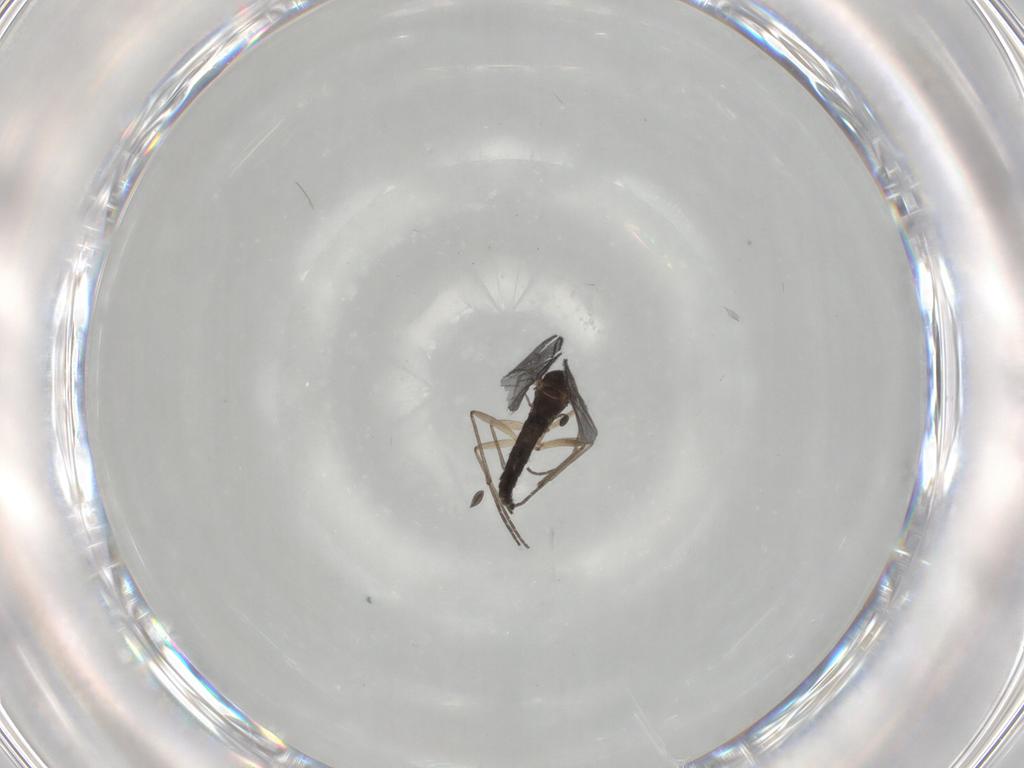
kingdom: Animalia
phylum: Arthropoda
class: Insecta
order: Diptera
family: Sciaridae
